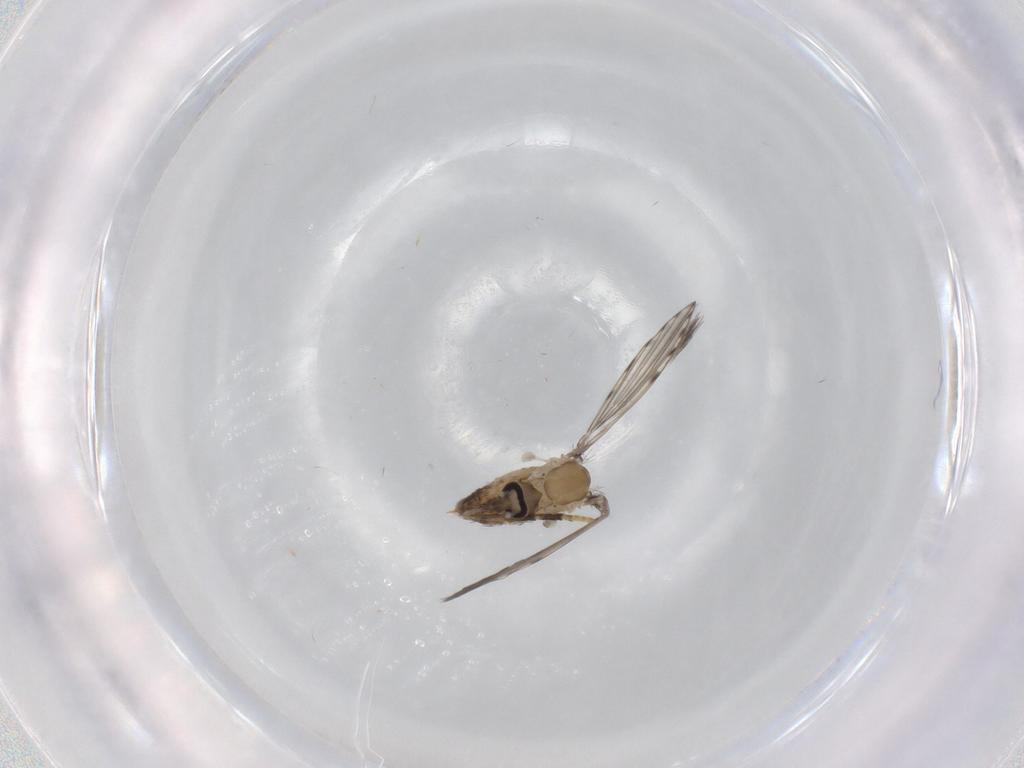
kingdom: Animalia
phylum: Arthropoda
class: Insecta
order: Diptera
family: Psychodidae
